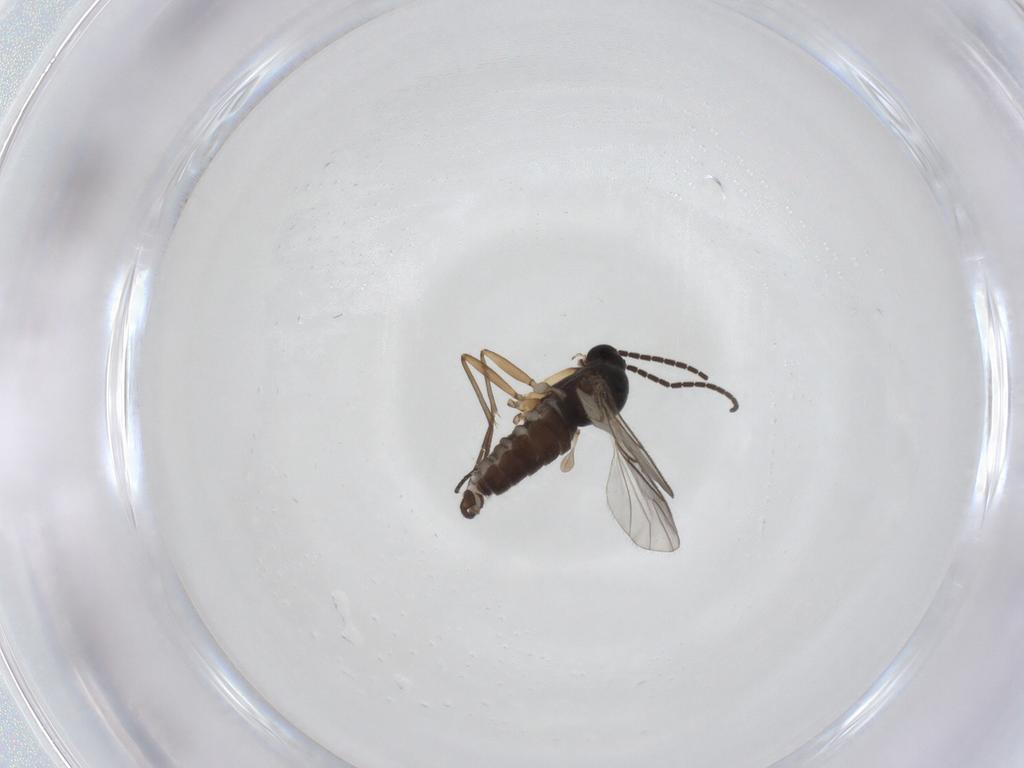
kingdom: Animalia
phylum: Arthropoda
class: Insecta
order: Diptera
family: Sciaridae
